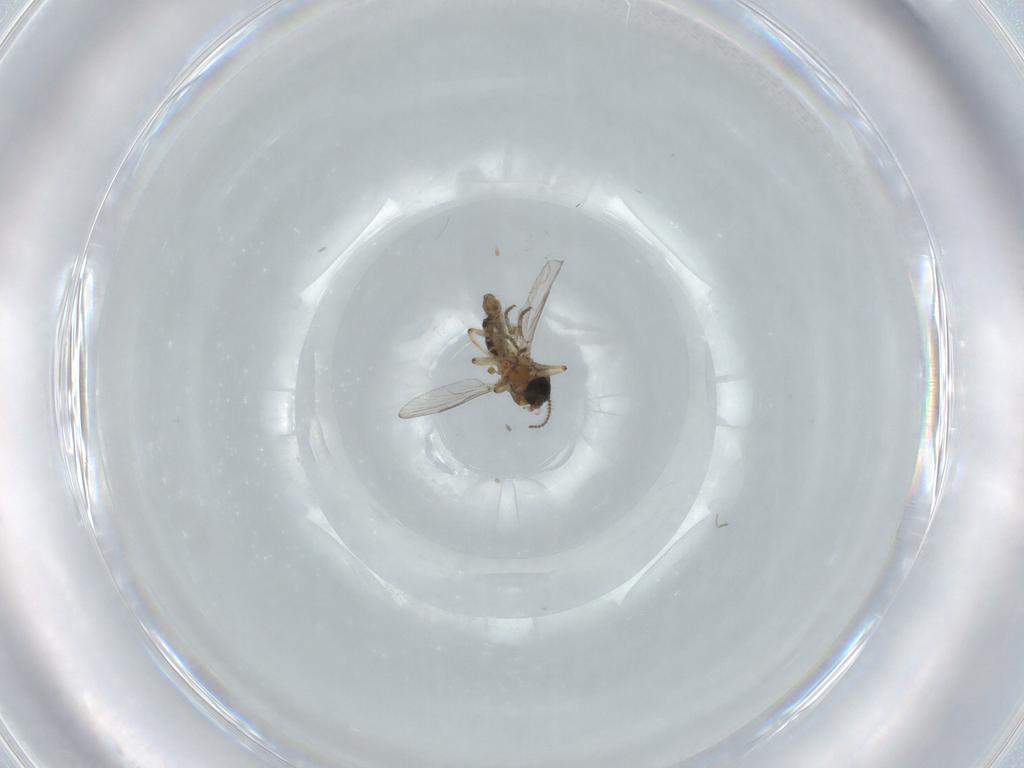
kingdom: Animalia
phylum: Arthropoda
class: Insecta
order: Diptera
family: Ceratopogonidae
